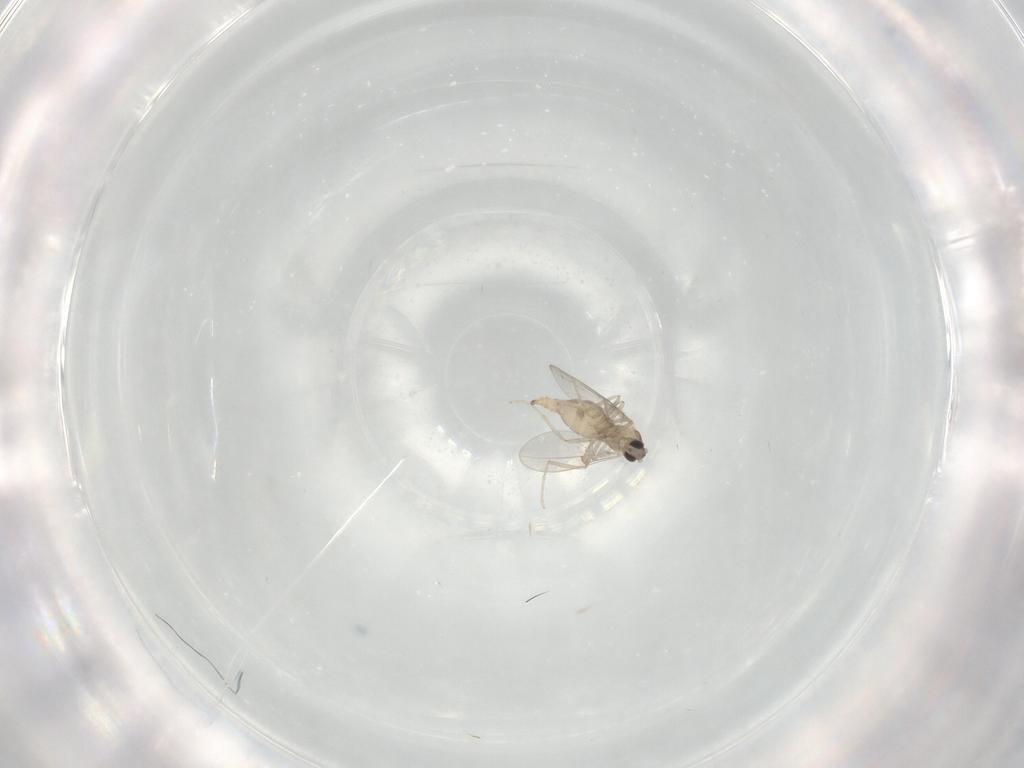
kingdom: Animalia
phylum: Arthropoda
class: Insecta
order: Diptera
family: Cecidomyiidae
